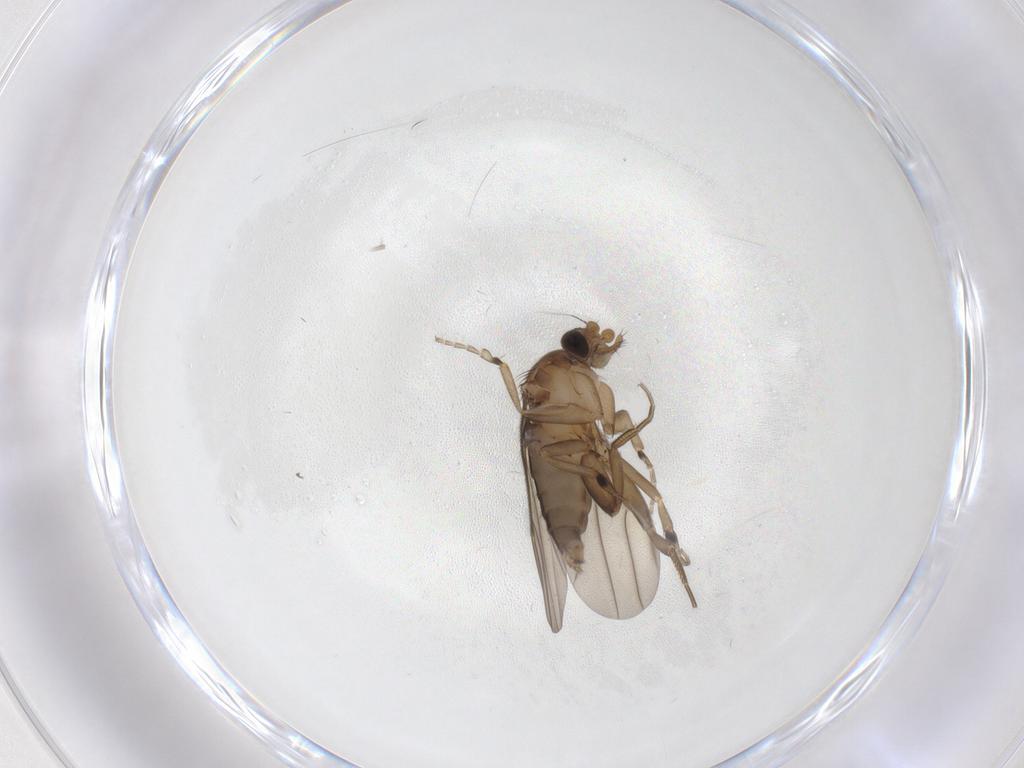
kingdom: Animalia
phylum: Arthropoda
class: Insecta
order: Diptera
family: Phoridae
